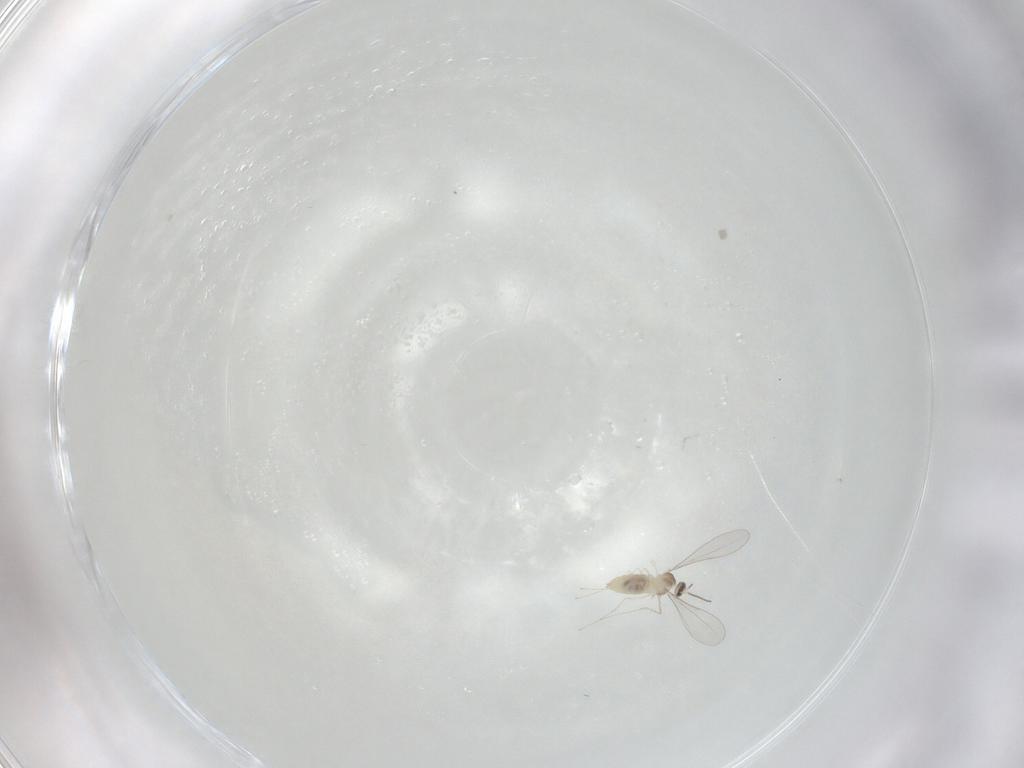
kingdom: Animalia
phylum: Arthropoda
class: Insecta
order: Diptera
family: Cecidomyiidae
